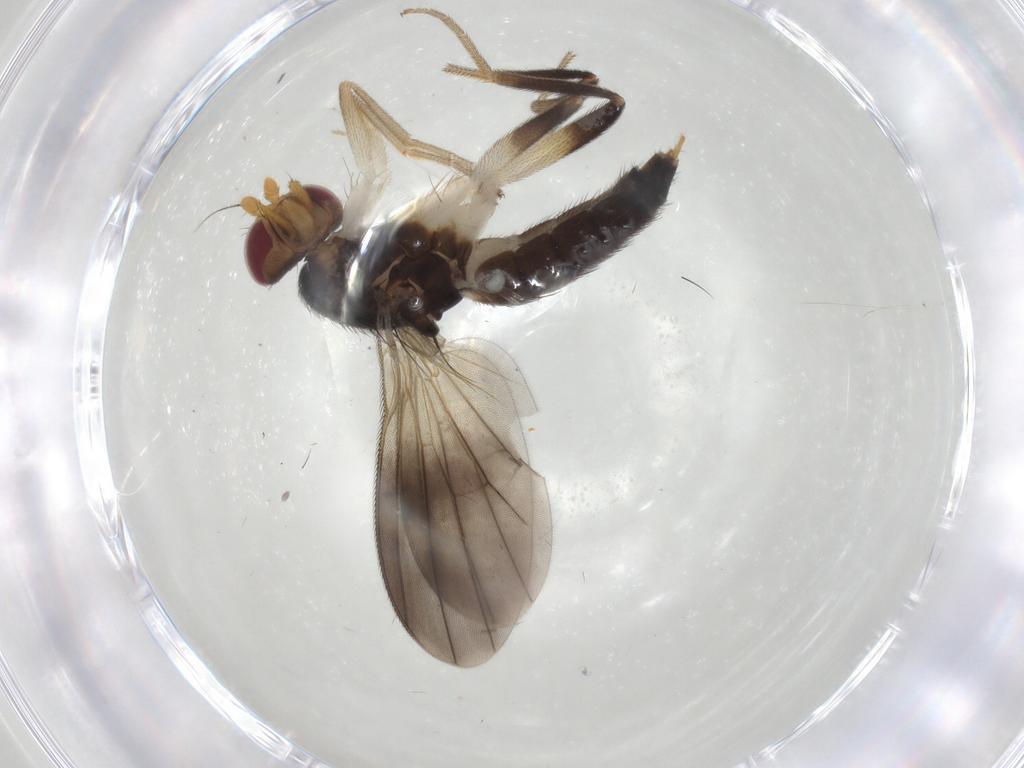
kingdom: Animalia
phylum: Arthropoda
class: Insecta
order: Diptera
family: Clusiidae
